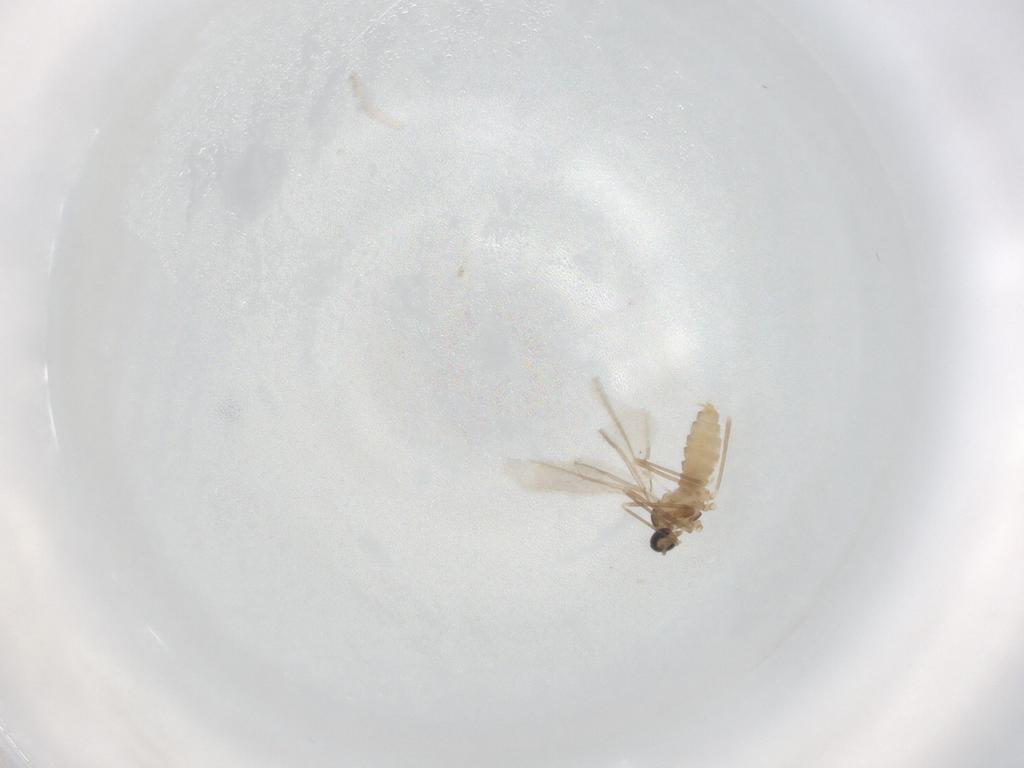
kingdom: Animalia
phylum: Arthropoda
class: Insecta
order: Diptera
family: Cecidomyiidae
